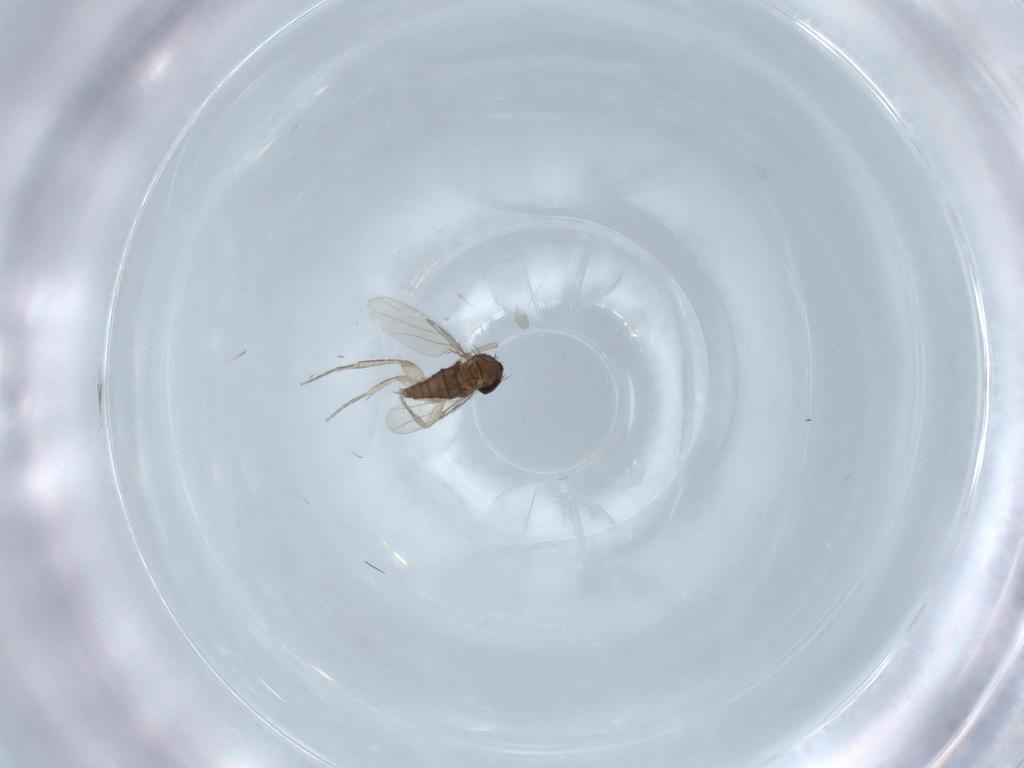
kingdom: Animalia
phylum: Arthropoda
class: Insecta
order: Diptera
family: Phoridae
